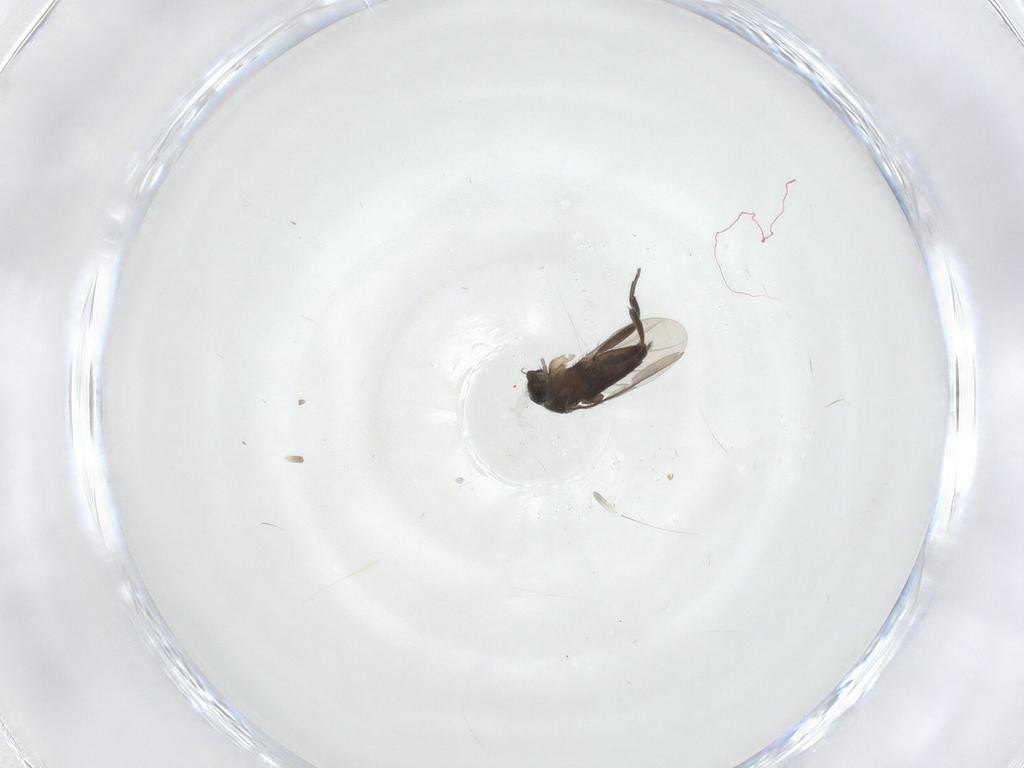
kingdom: Animalia
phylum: Arthropoda
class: Insecta
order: Diptera
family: Phoridae
